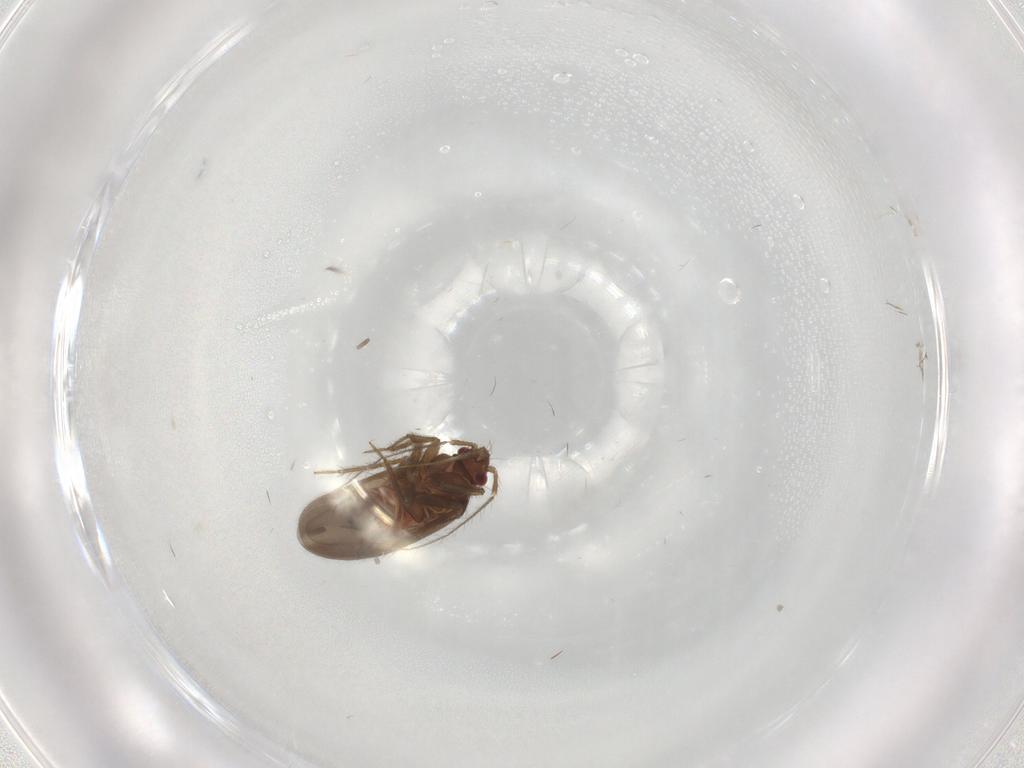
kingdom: Animalia
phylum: Arthropoda
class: Insecta
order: Hemiptera
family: Ceratocombidae
